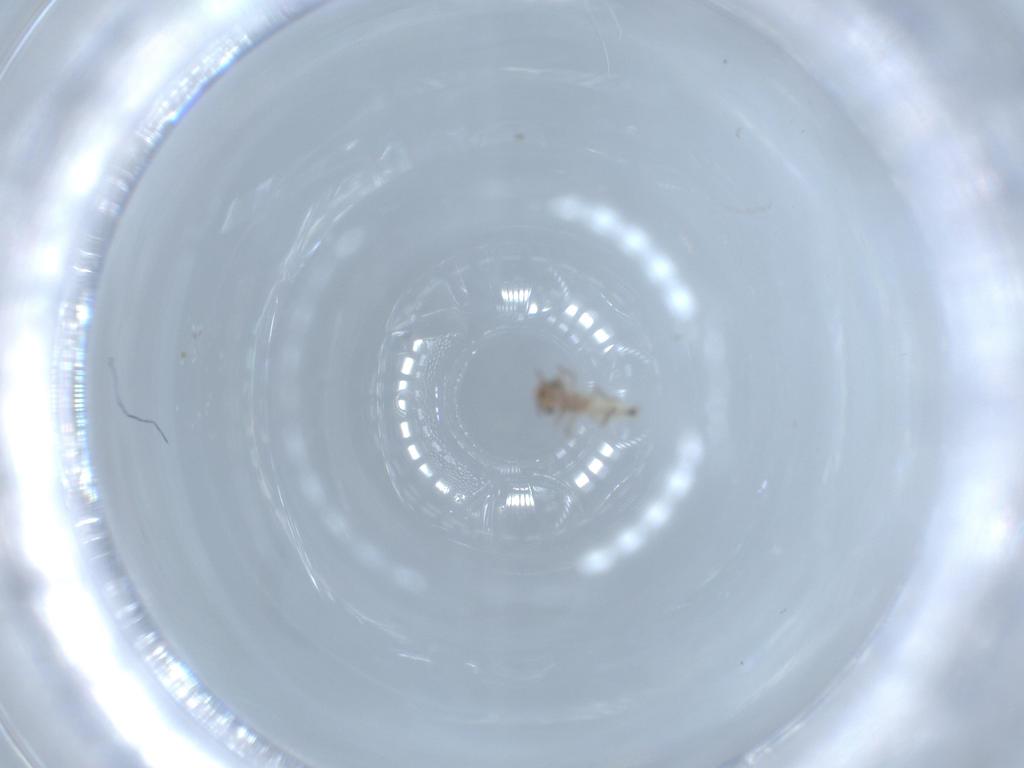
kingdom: Animalia
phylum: Arthropoda
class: Insecta
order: Psocodea
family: Lepidopsocidae
